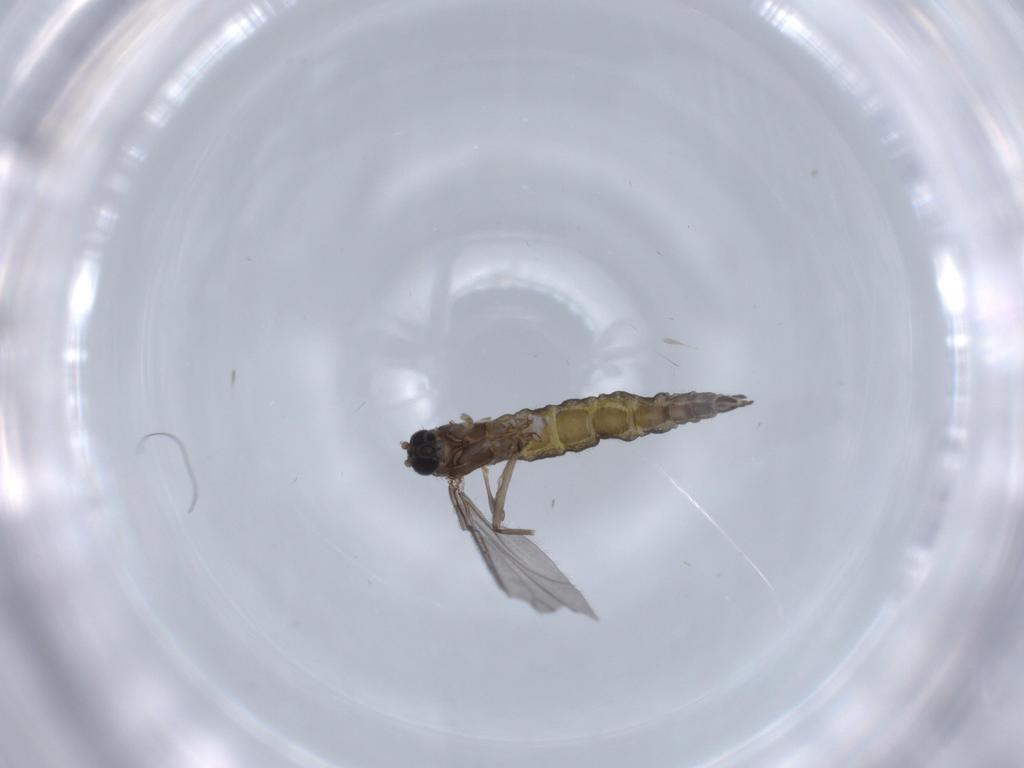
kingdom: Animalia
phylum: Arthropoda
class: Insecta
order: Diptera
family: Sciaridae
